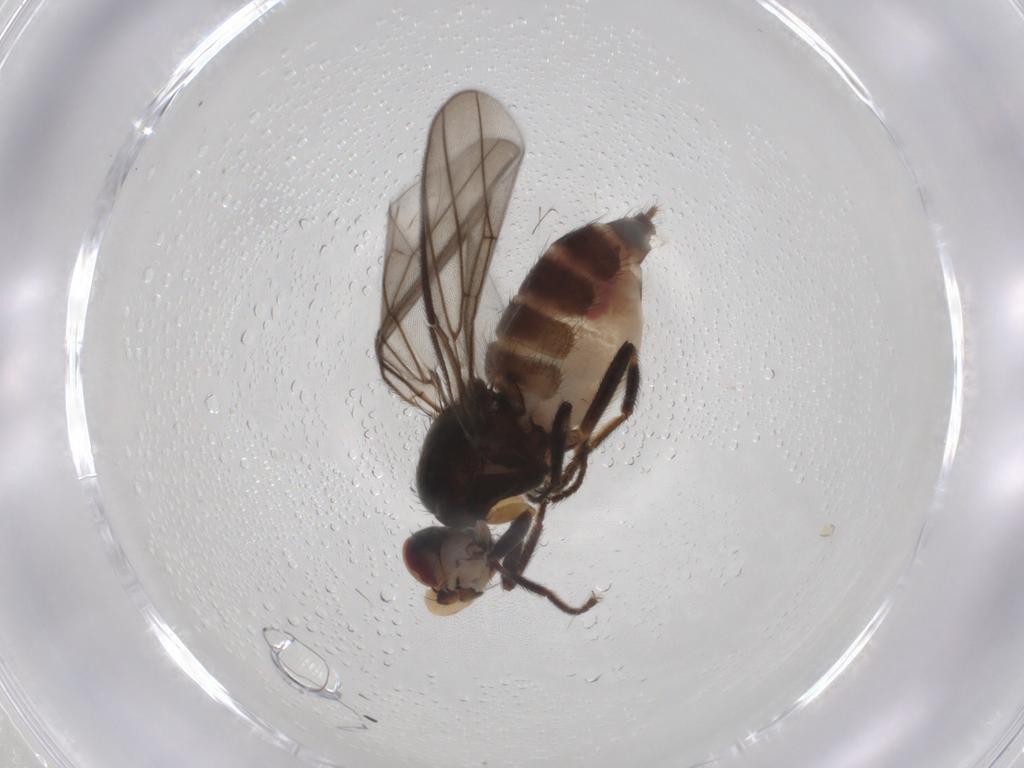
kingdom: Animalia
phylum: Arthropoda
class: Insecta
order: Diptera
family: Chloropidae
